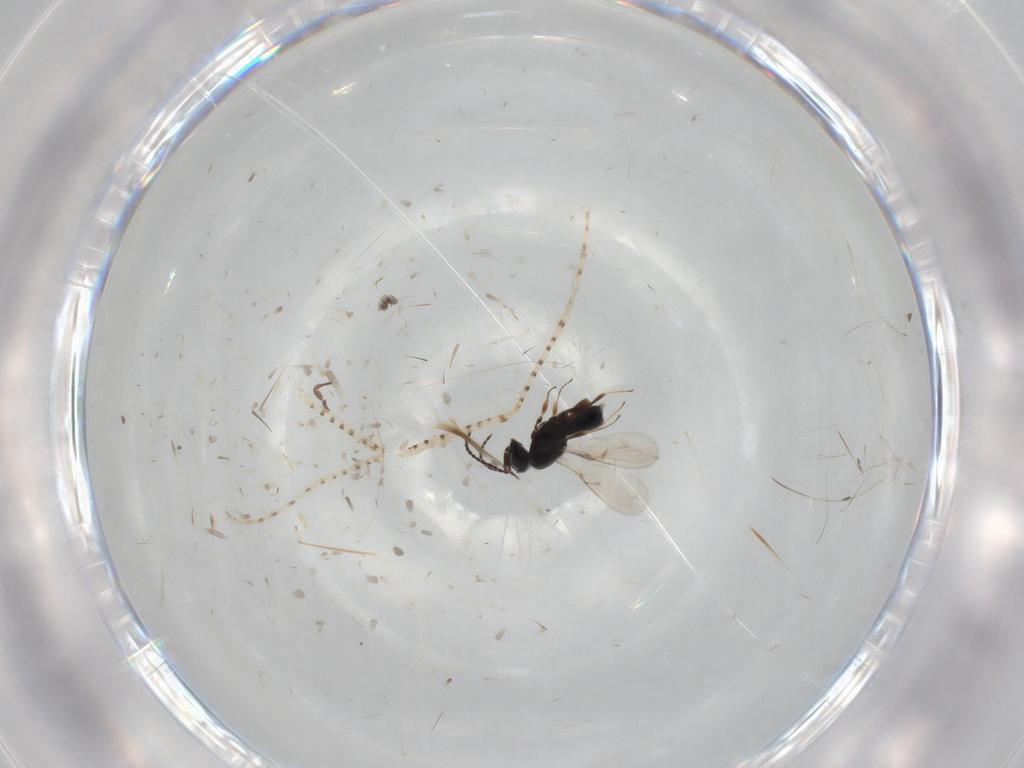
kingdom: Animalia
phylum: Arthropoda
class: Insecta
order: Hymenoptera
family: Scelionidae
